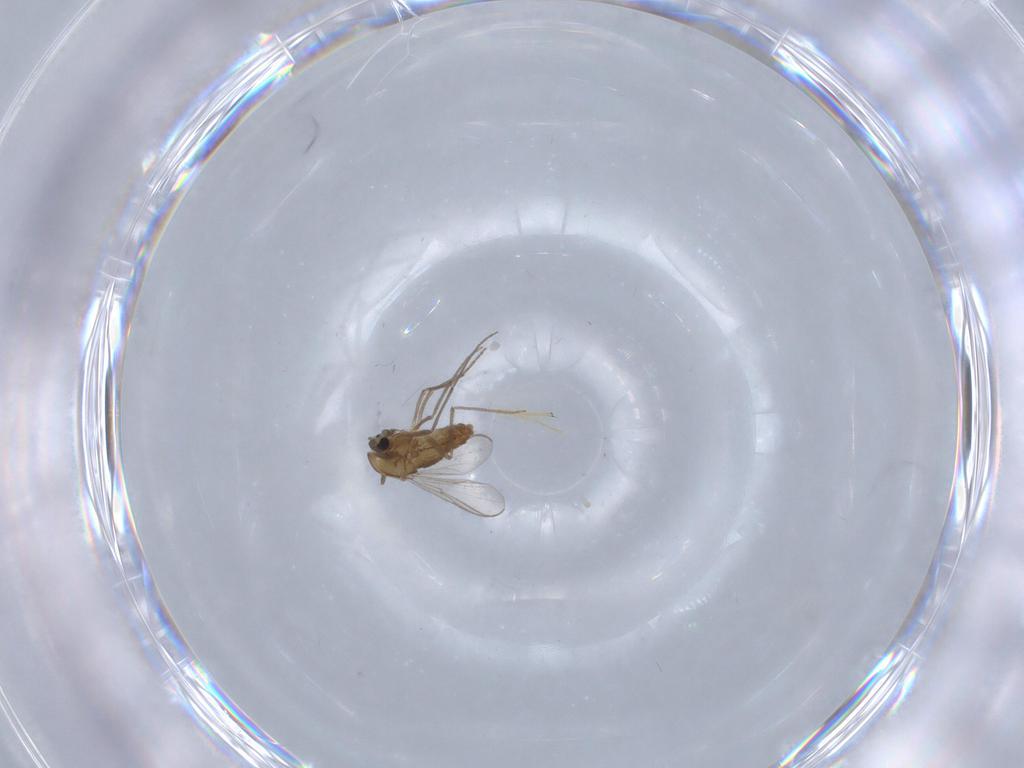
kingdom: Animalia
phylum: Arthropoda
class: Insecta
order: Diptera
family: Chironomidae
